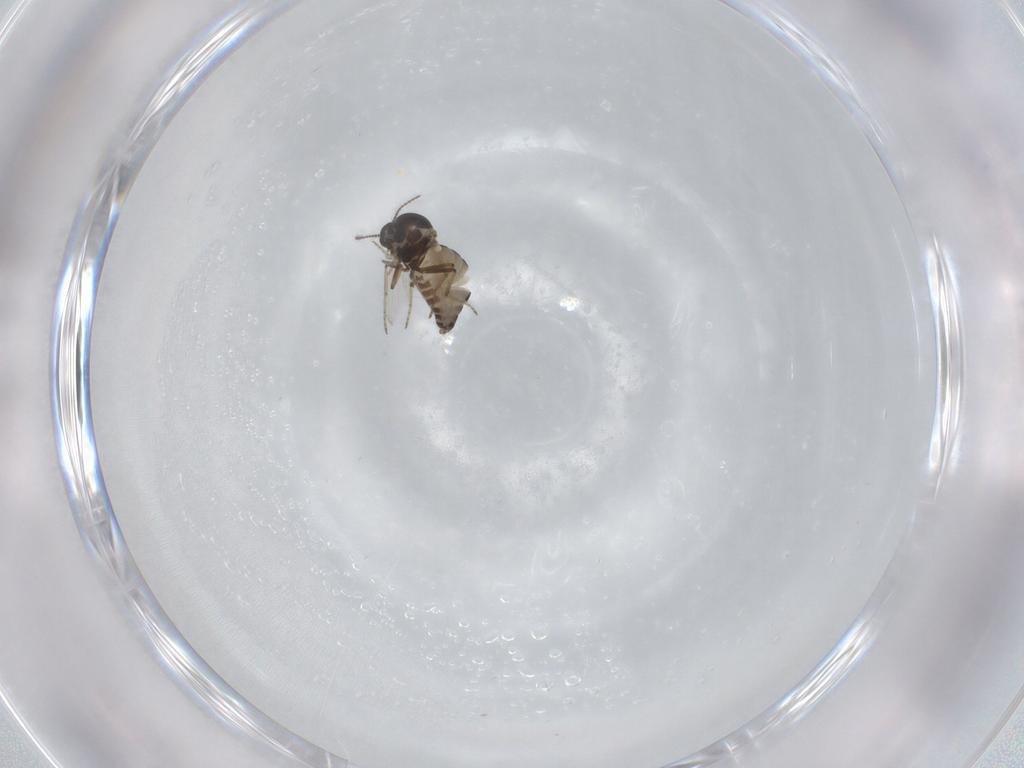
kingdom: Animalia
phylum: Arthropoda
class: Insecta
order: Diptera
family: Ceratopogonidae
